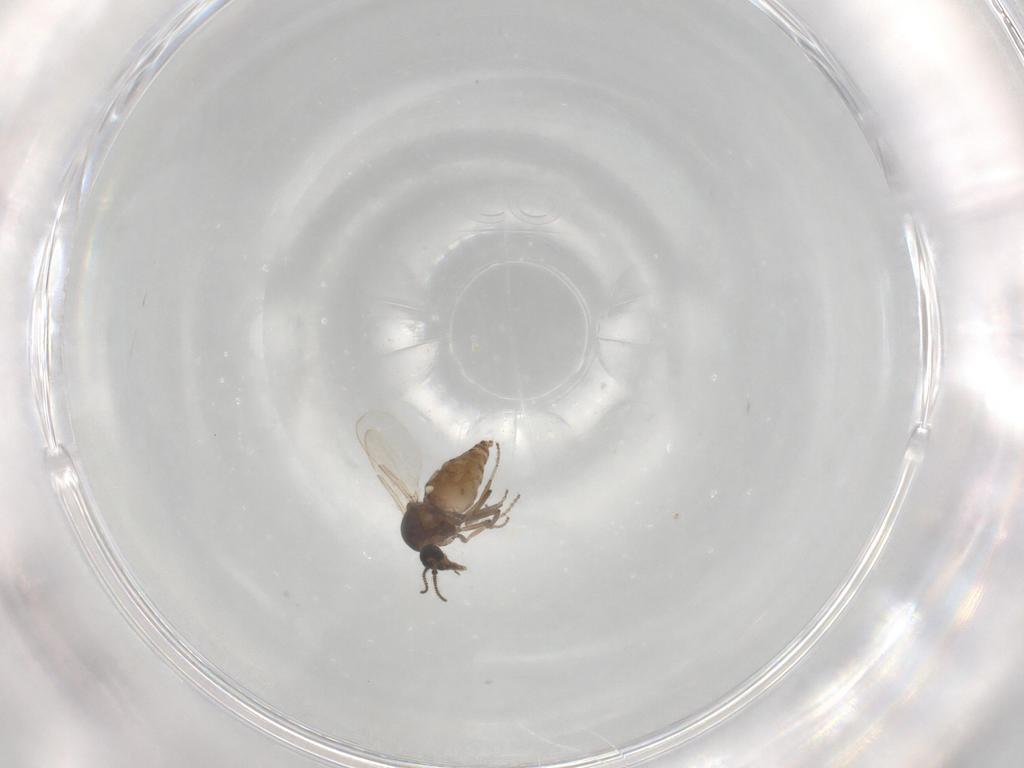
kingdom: Animalia
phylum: Arthropoda
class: Insecta
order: Diptera
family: Ceratopogonidae
